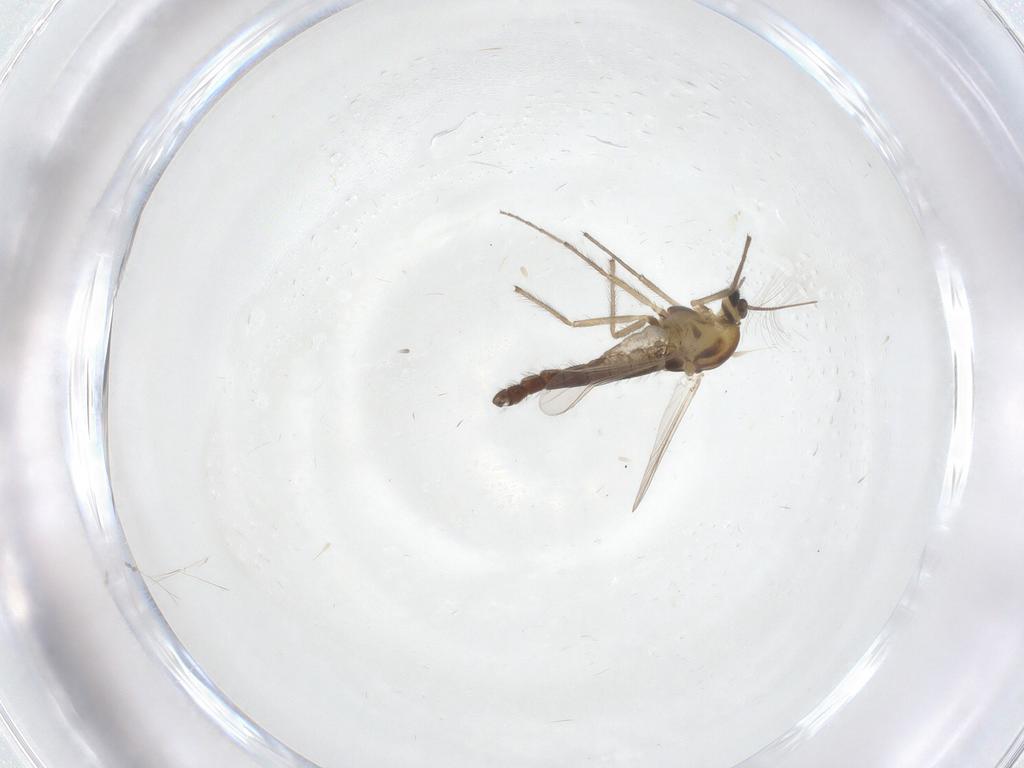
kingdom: Animalia
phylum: Arthropoda
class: Insecta
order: Diptera
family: Chironomidae
